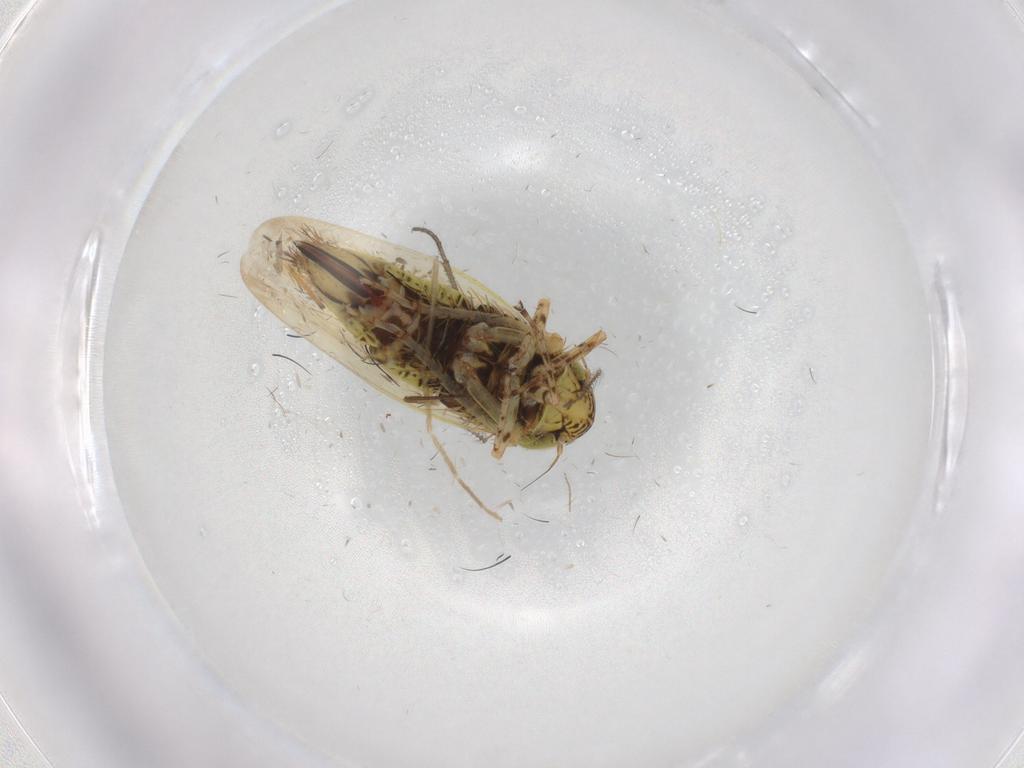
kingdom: Animalia
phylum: Arthropoda
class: Insecta
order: Hemiptera
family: Cicadellidae
